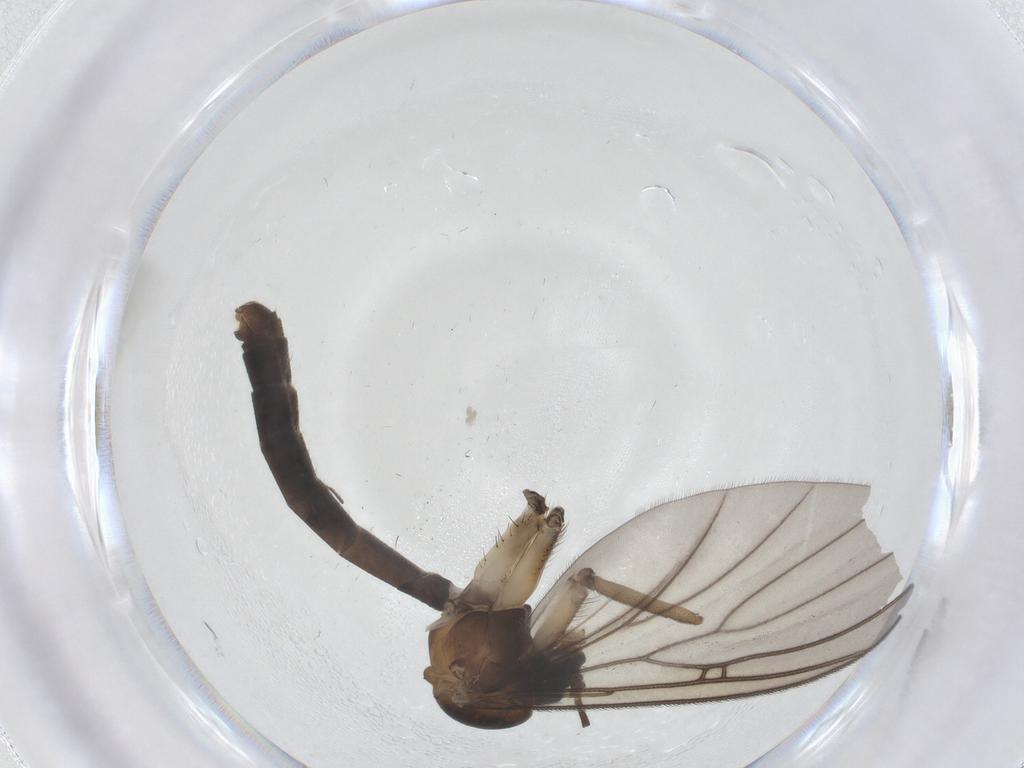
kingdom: Animalia
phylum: Arthropoda
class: Insecta
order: Diptera
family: Mycetophilidae
